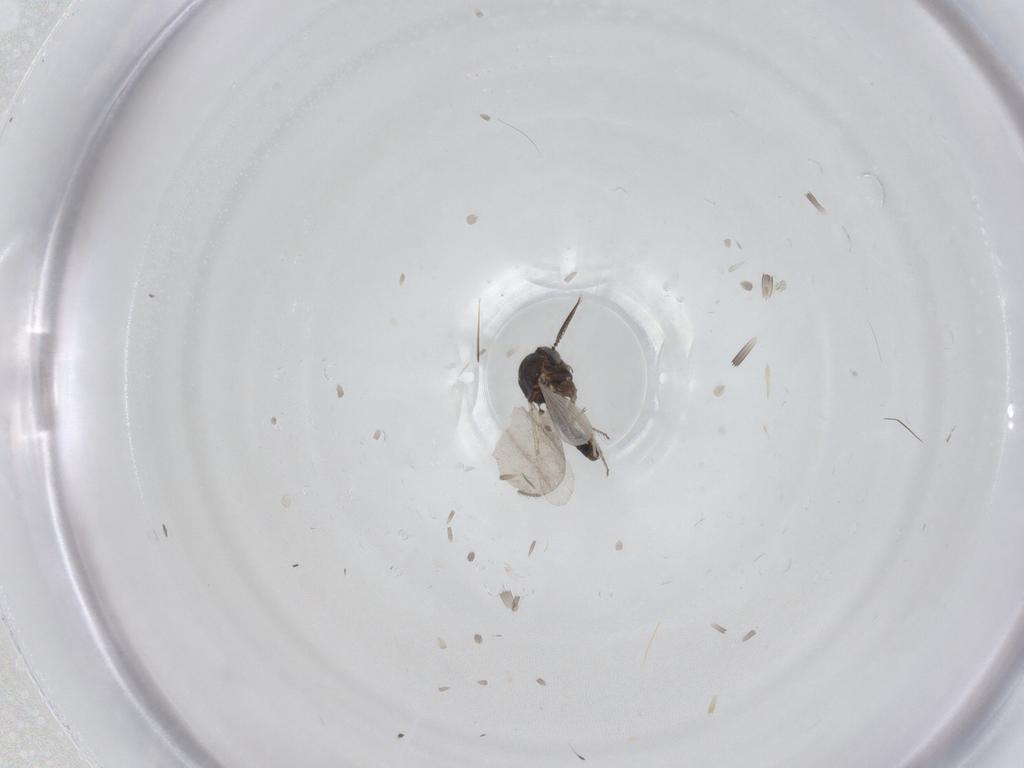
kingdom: Animalia
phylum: Arthropoda
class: Insecta
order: Diptera
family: Ceratopogonidae
